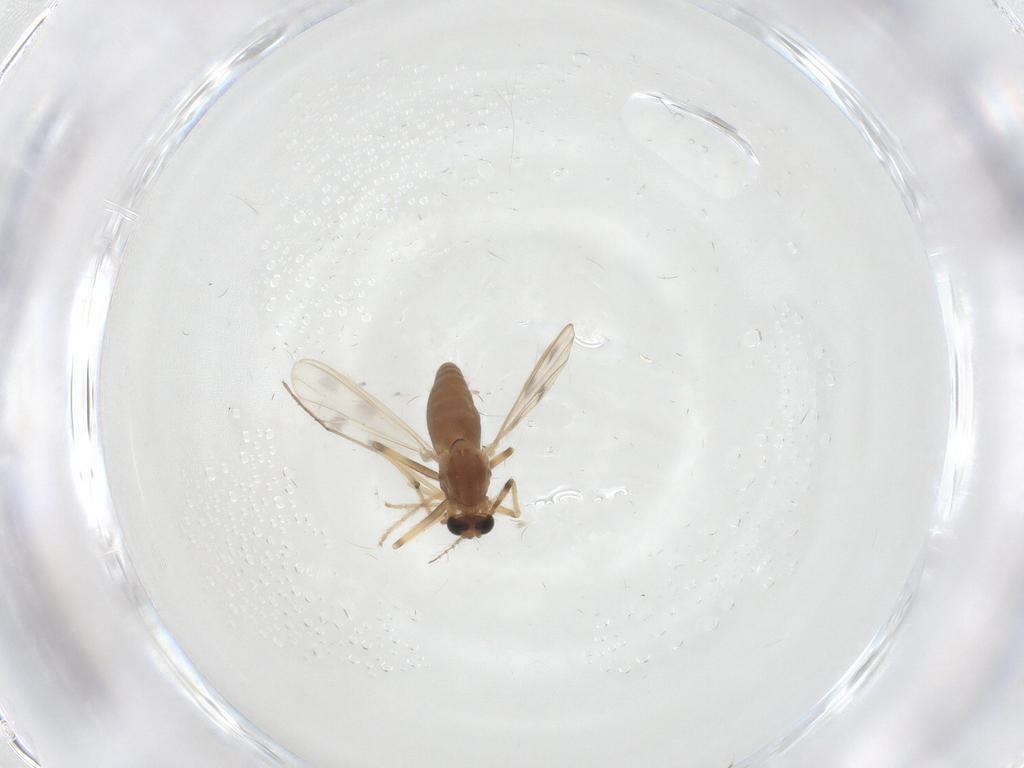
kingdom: Animalia
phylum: Arthropoda
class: Insecta
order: Diptera
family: Chironomidae
